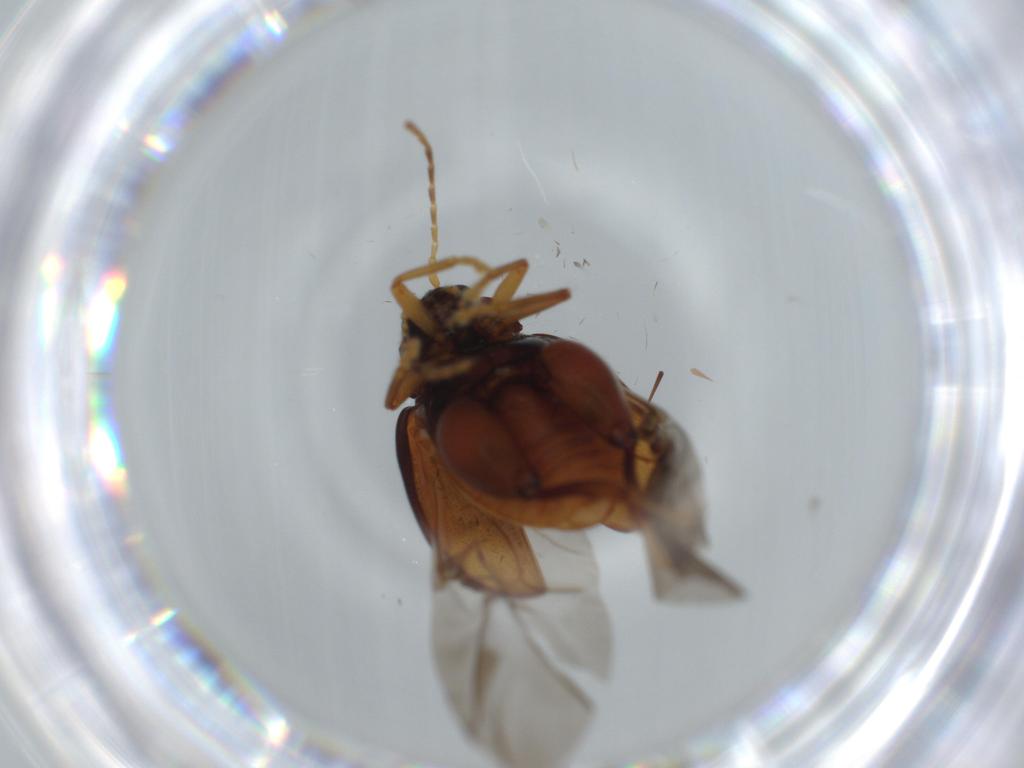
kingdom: Animalia
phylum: Arthropoda
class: Insecta
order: Coleoptera
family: Chrysomelidae
